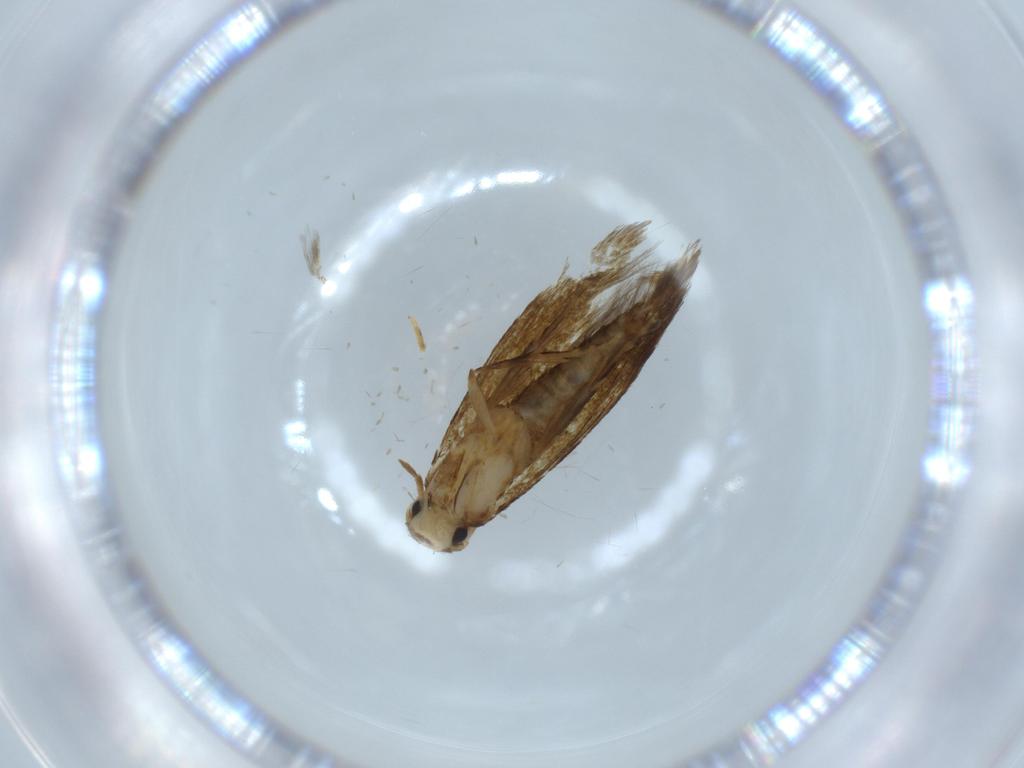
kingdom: Animalia
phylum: Arthropoda
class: Insecta
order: Lepidoptera
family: Tineidae
